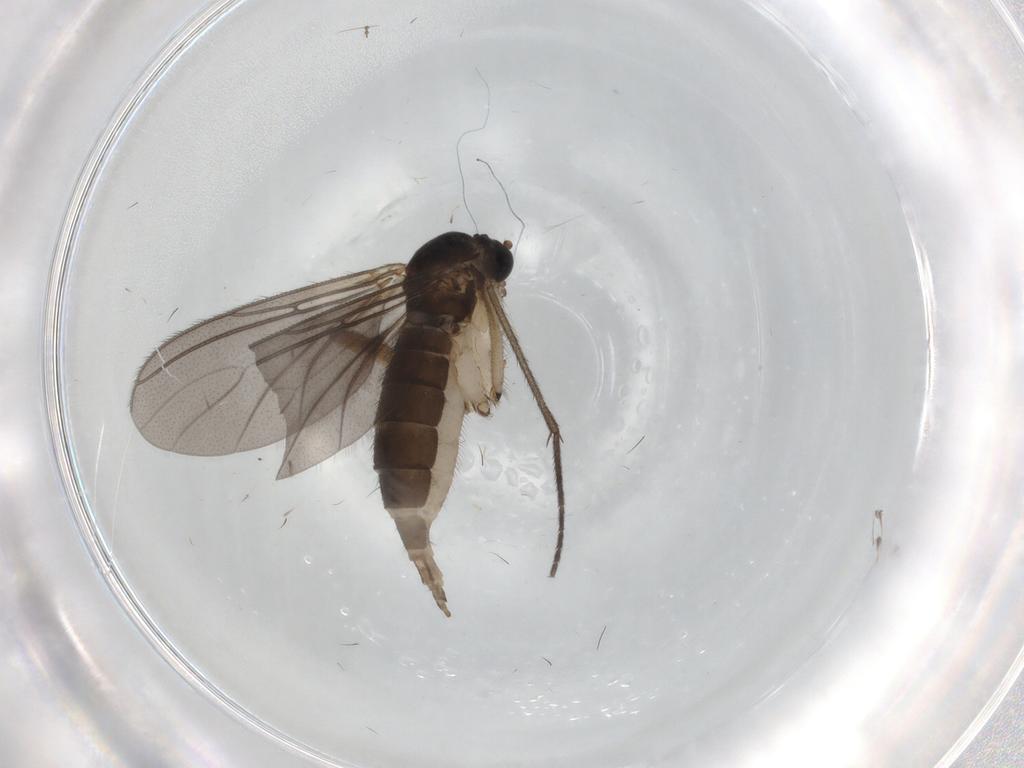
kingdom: Animalia
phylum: Arthropoda
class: Insecta
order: Diptera
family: Sciaridae
